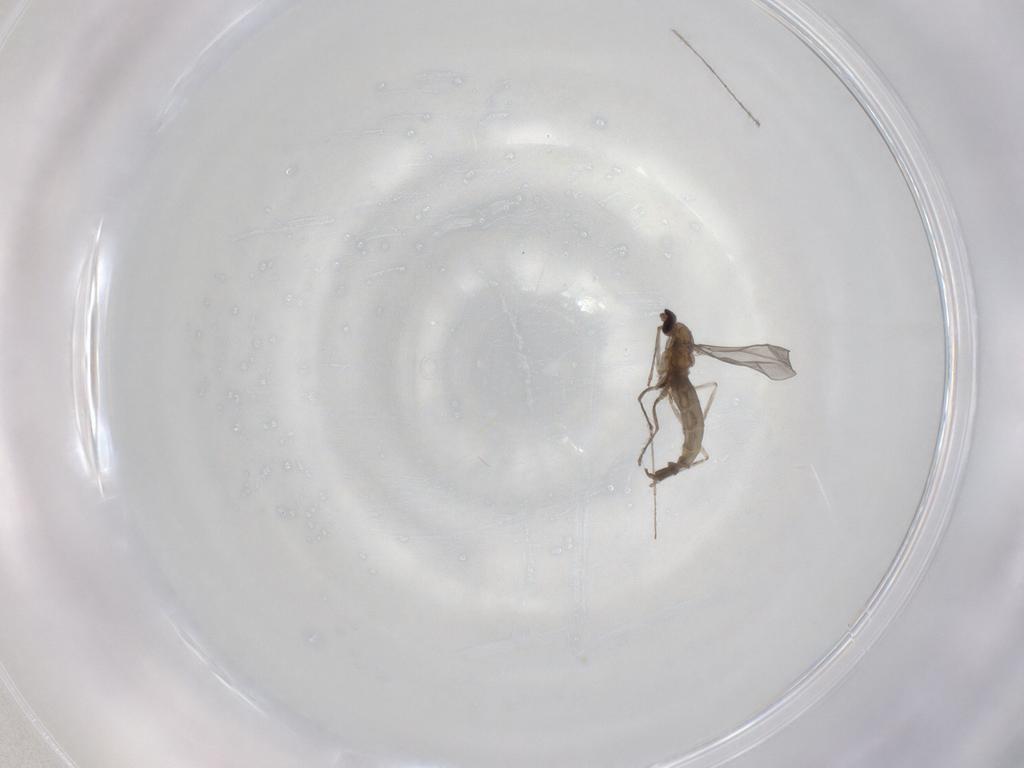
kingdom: Animalia
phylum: Arthropoda
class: Insecta
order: Diptera
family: Cecidomyiidae
